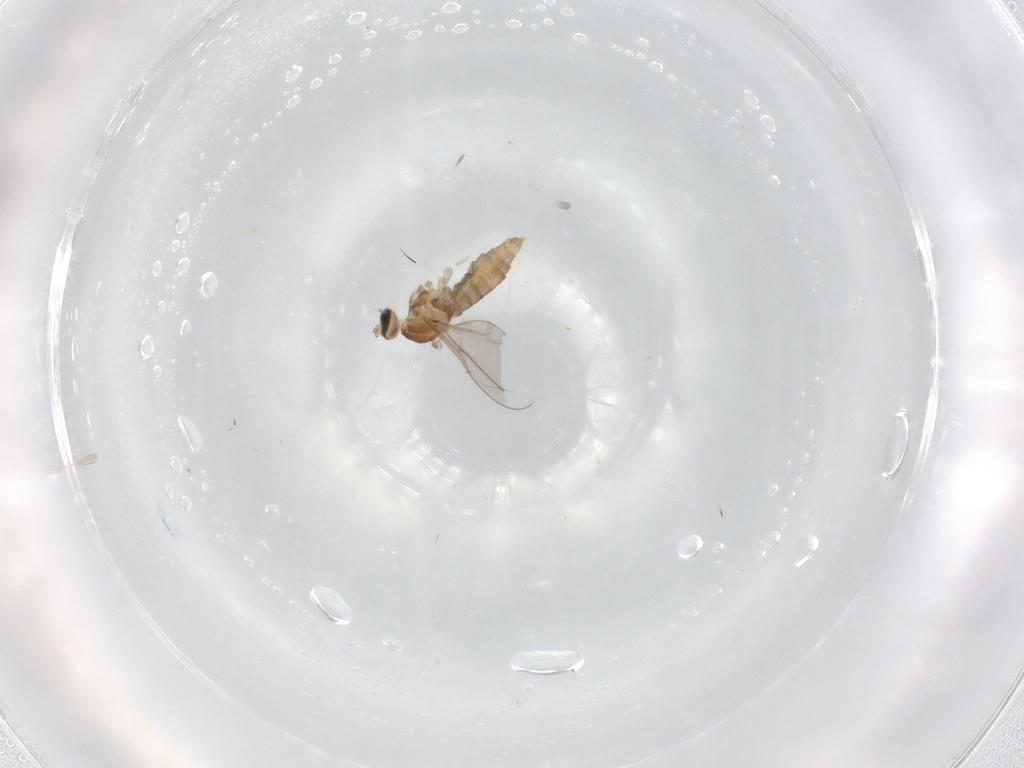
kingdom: Animalia
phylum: Arthropoda
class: Insecta
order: Diptera
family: Cecidomyiidae
